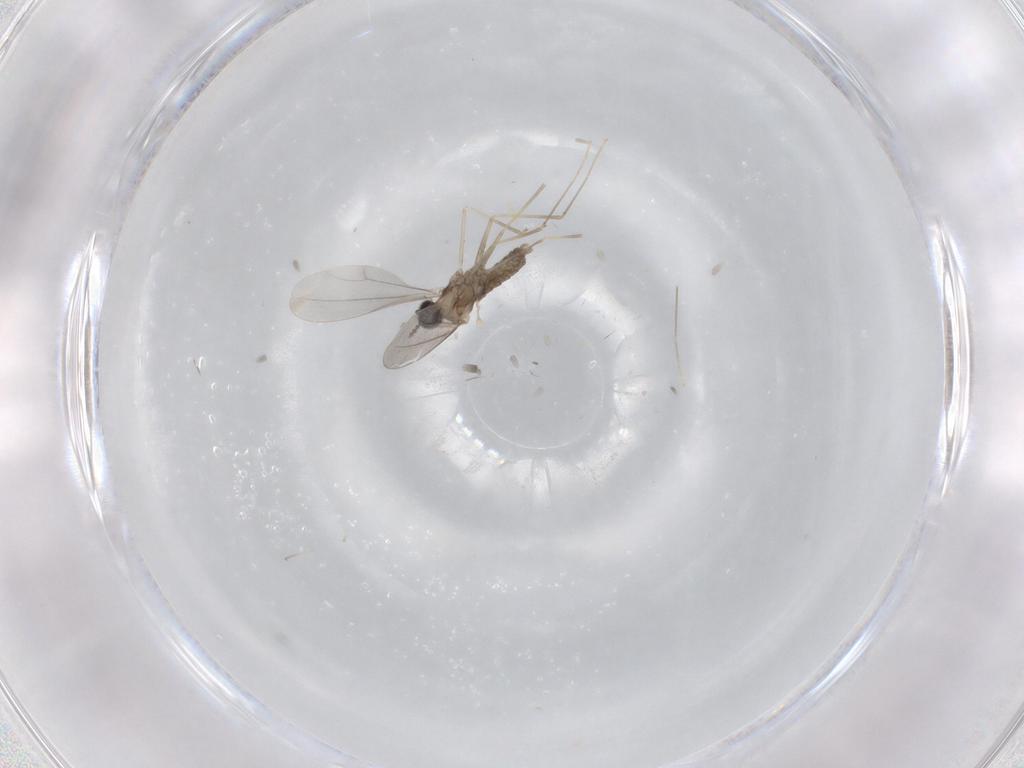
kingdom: Animalia
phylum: Arthropoda
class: Insecta
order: Diptera
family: Cecidomyiidae
